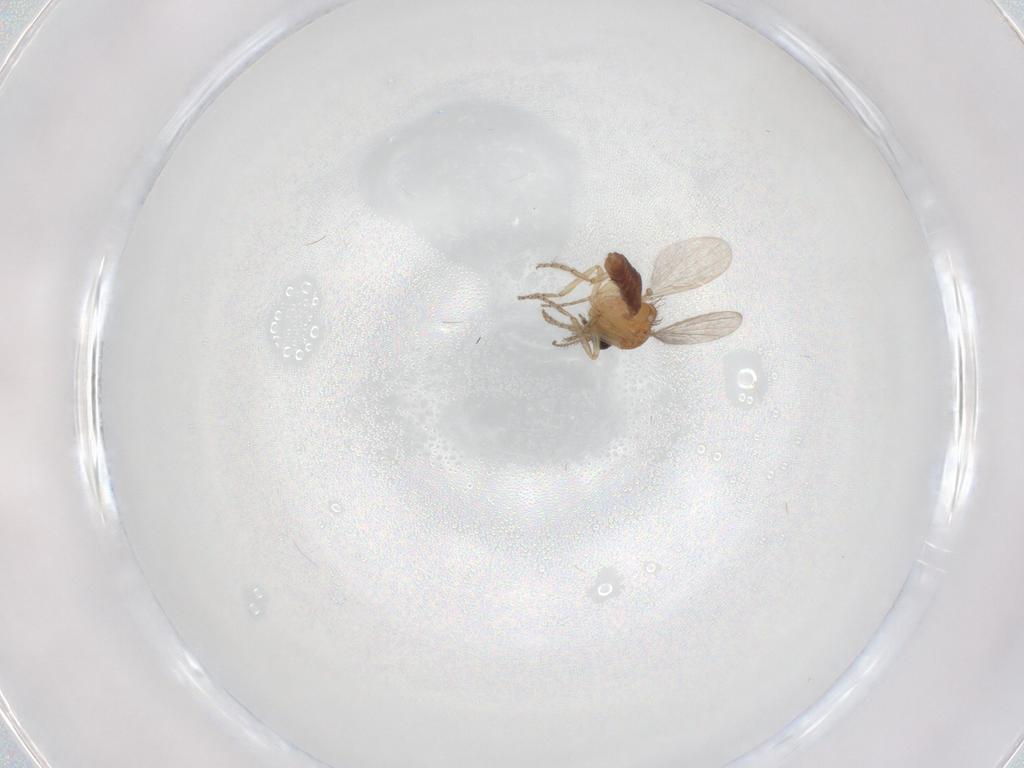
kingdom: Animalia
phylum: Arthropoda
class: Insecta
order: Diptera
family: Ceratopogonidae
